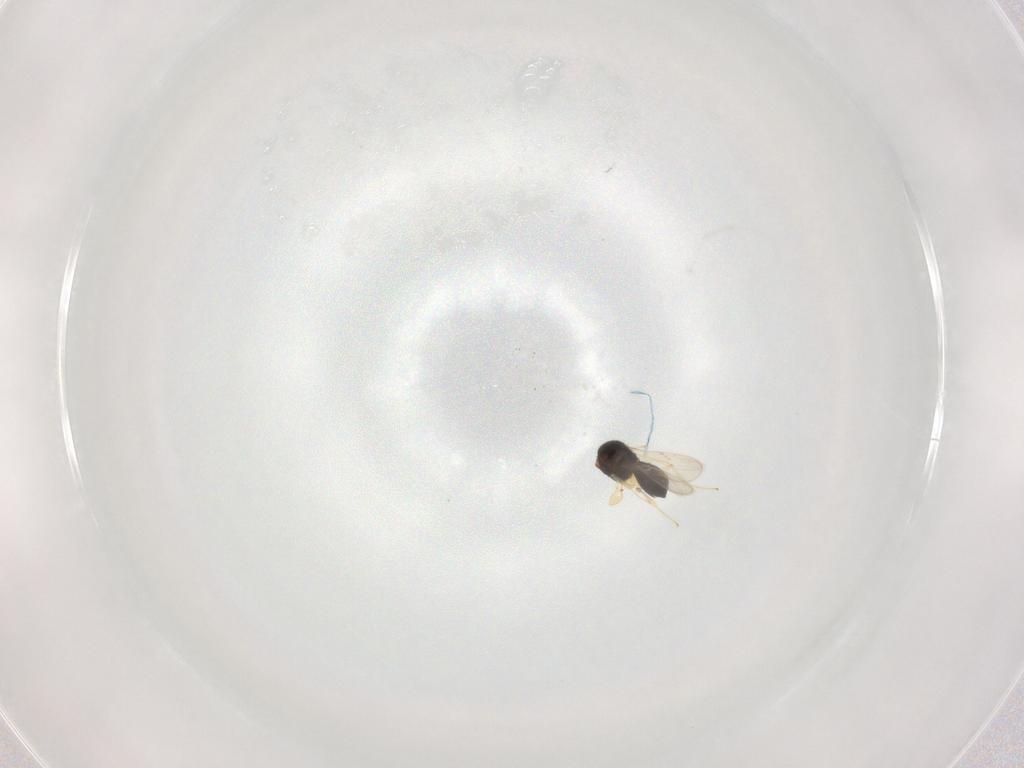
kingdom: Animalia
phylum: Arthropoda
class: Insecta
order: Hymenoptera
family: Scelionidae
